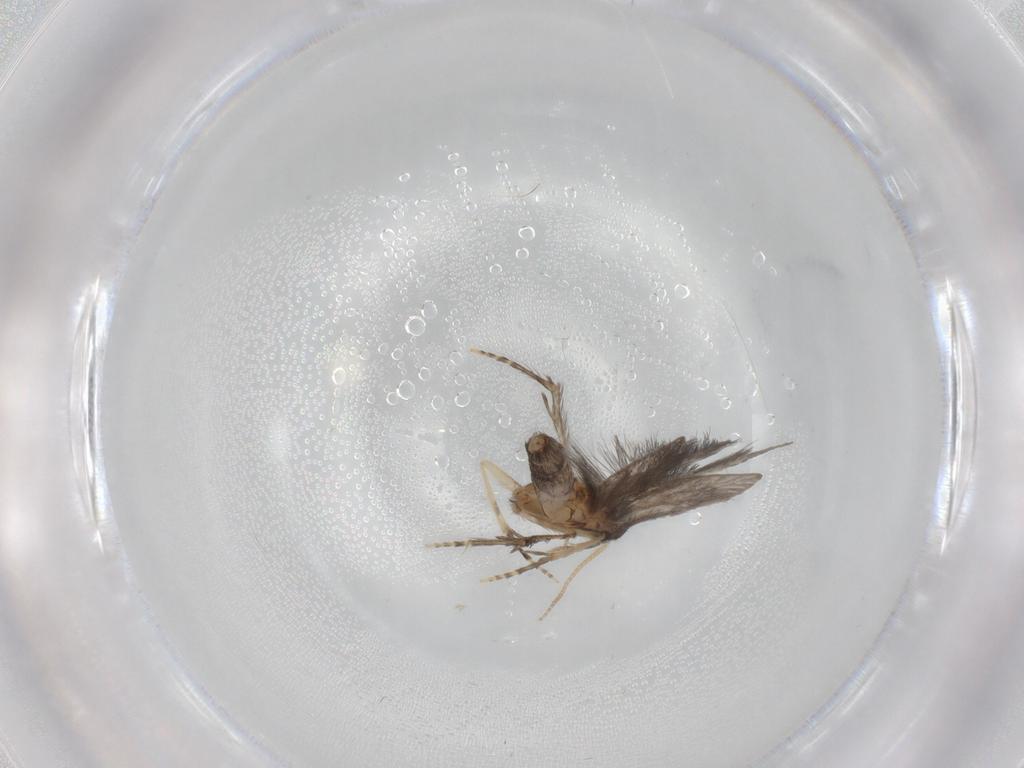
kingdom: Animalia
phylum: Arthropoda
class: Insecta
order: Trichoptera
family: Hydroptilidae
